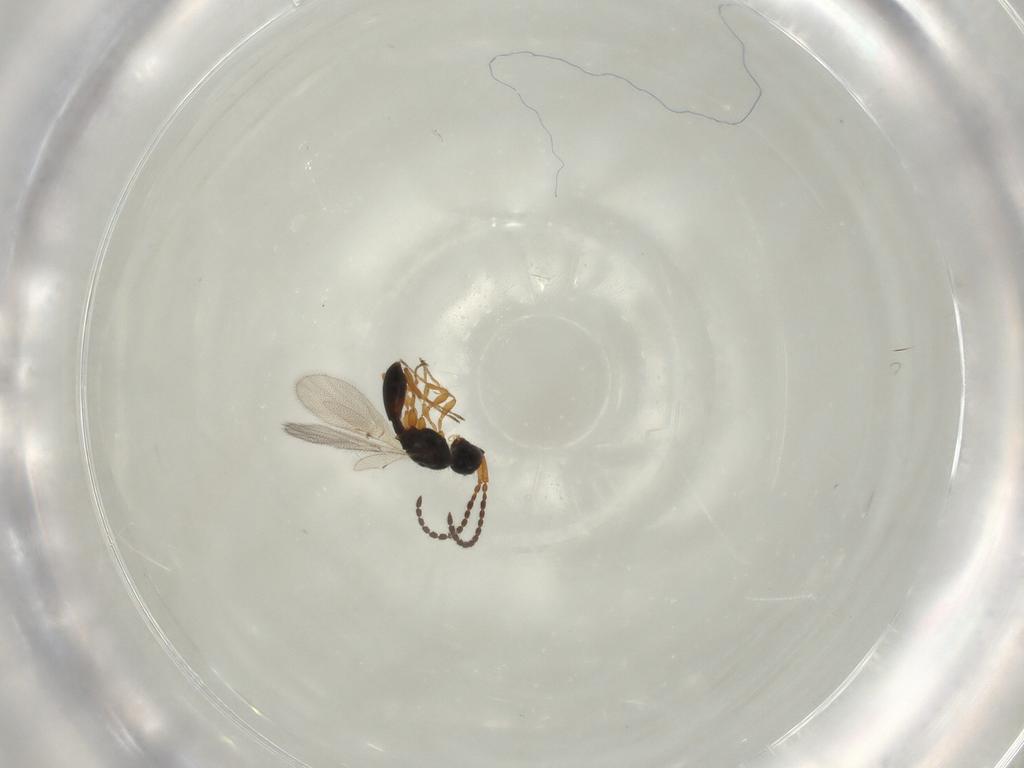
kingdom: Animalia
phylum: Arthropoda
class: Insecta
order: Hymenoptera
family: Diapriidae
